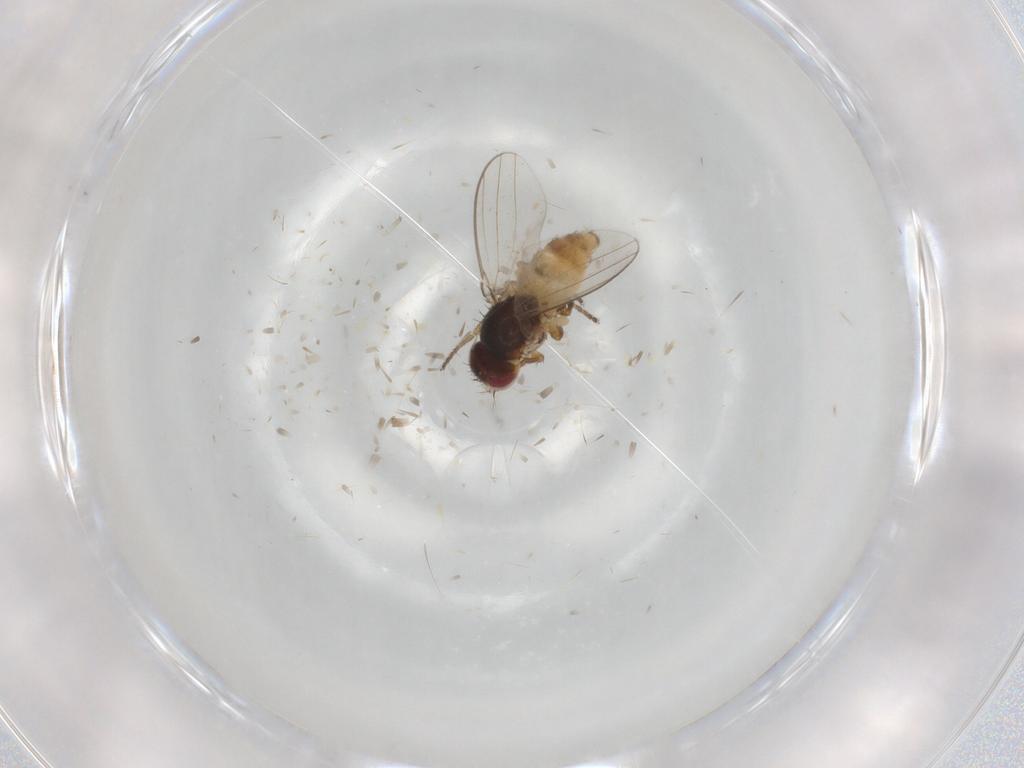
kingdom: Animalia
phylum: Arthropoda
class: Insecta
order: Diptera
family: Chloropidae
